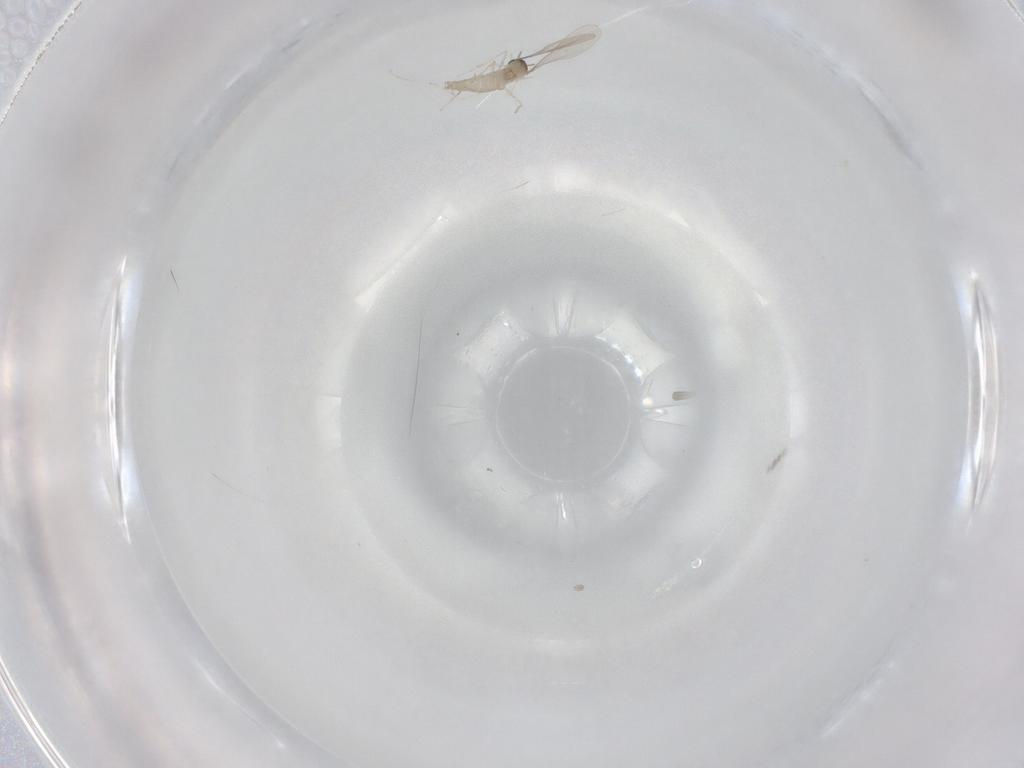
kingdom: Animalia
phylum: Arthropoda
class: Insecta
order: Diptera
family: Cecidomyiidae
